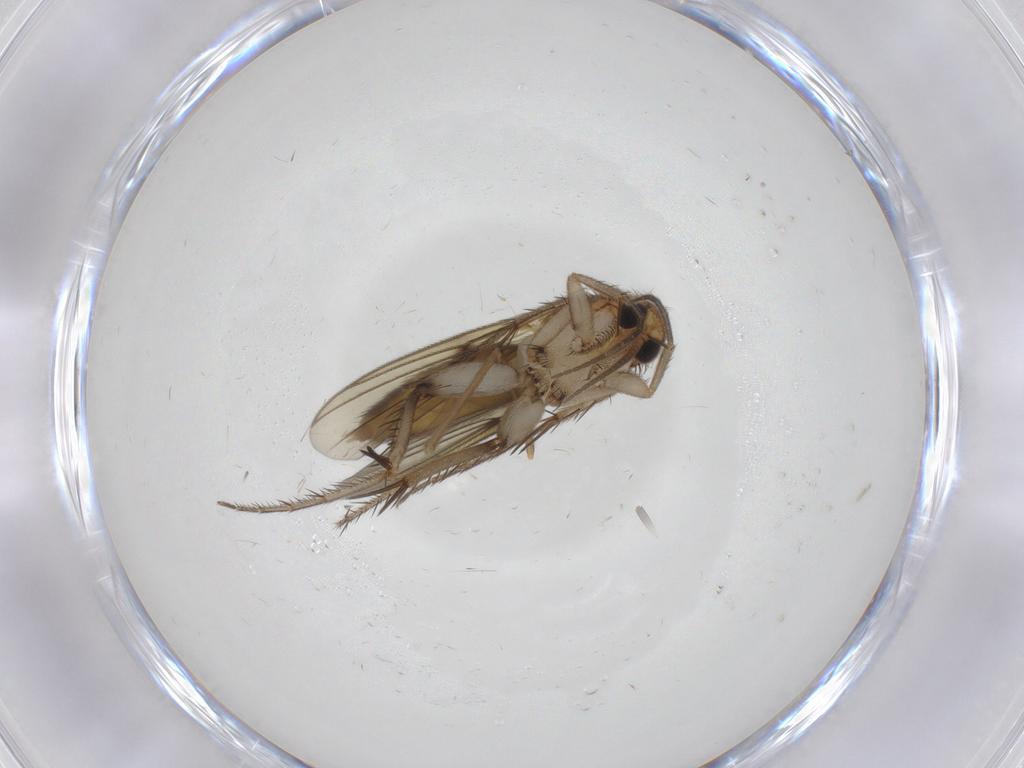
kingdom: Animalia
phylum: Arthropoda
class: Insecta
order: Diptera
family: Mycetophilidae
